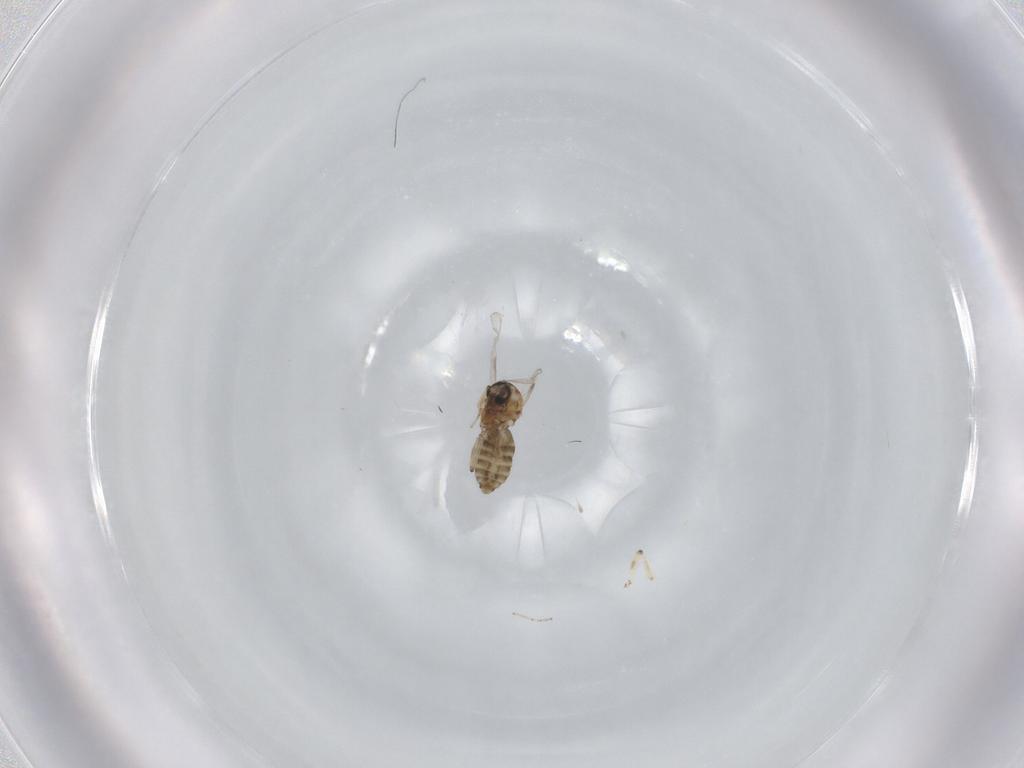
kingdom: Animalia
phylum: Arthropoda
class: Insecta
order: Diptera
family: Ceratopogonidae
